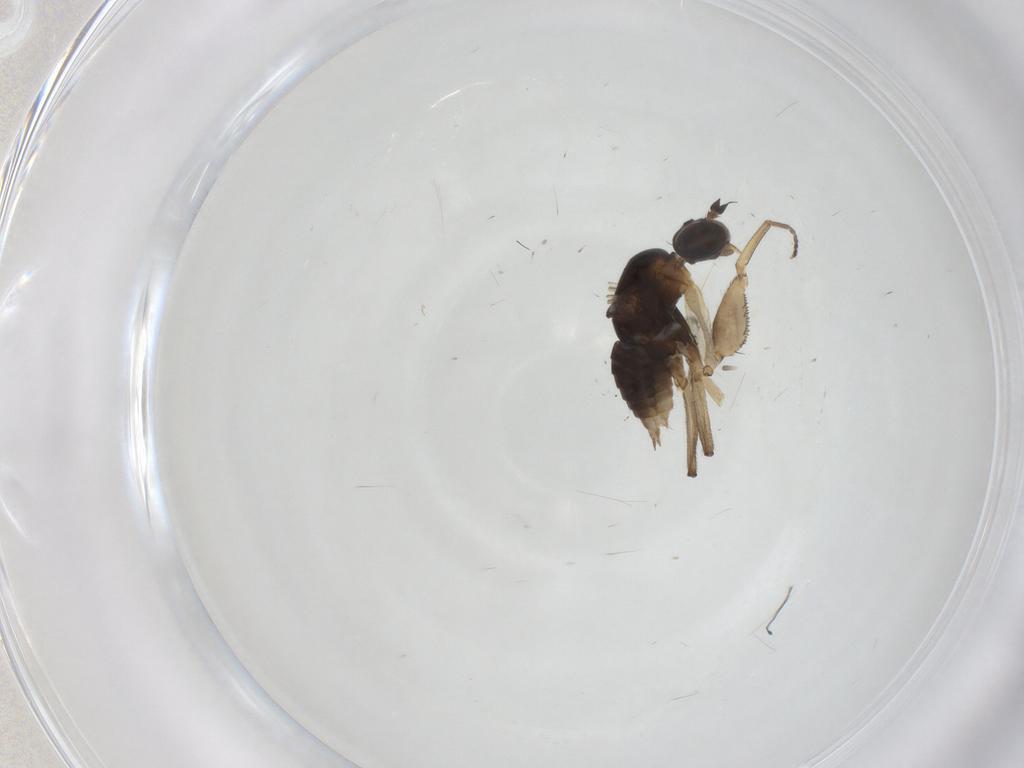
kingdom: Animalia
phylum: Arthropoda
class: Insecta
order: Diptera
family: Empididae
